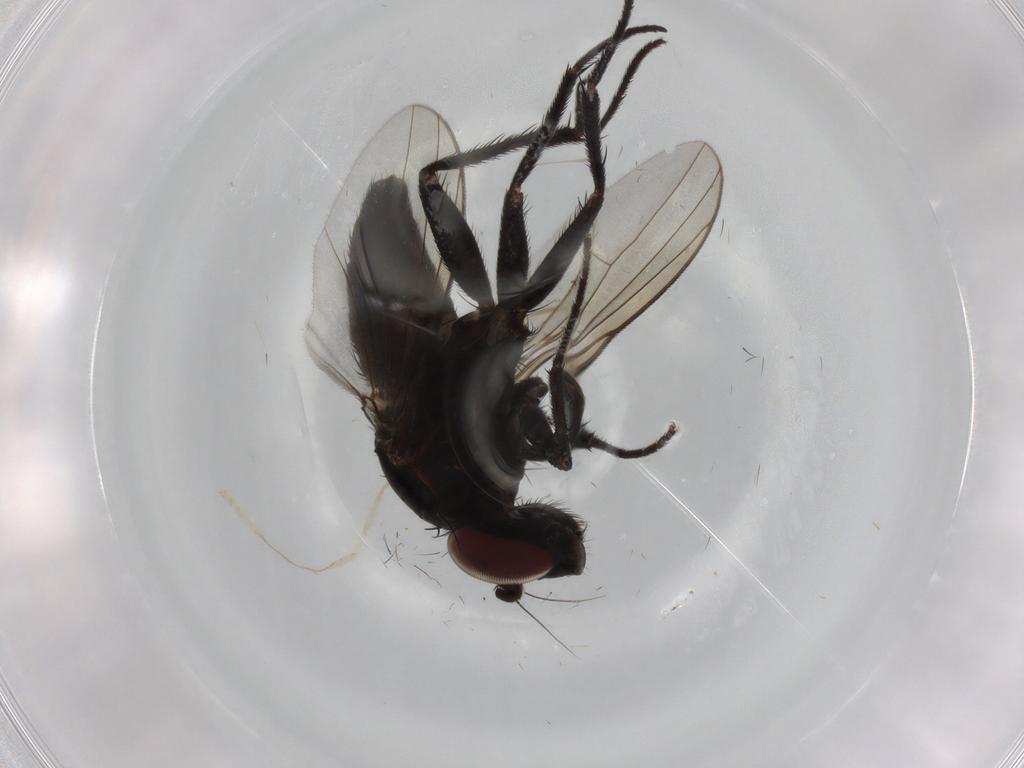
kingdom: Animalia
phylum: Arthropoda
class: Insecta
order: Diptera
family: Dolichopodidae
